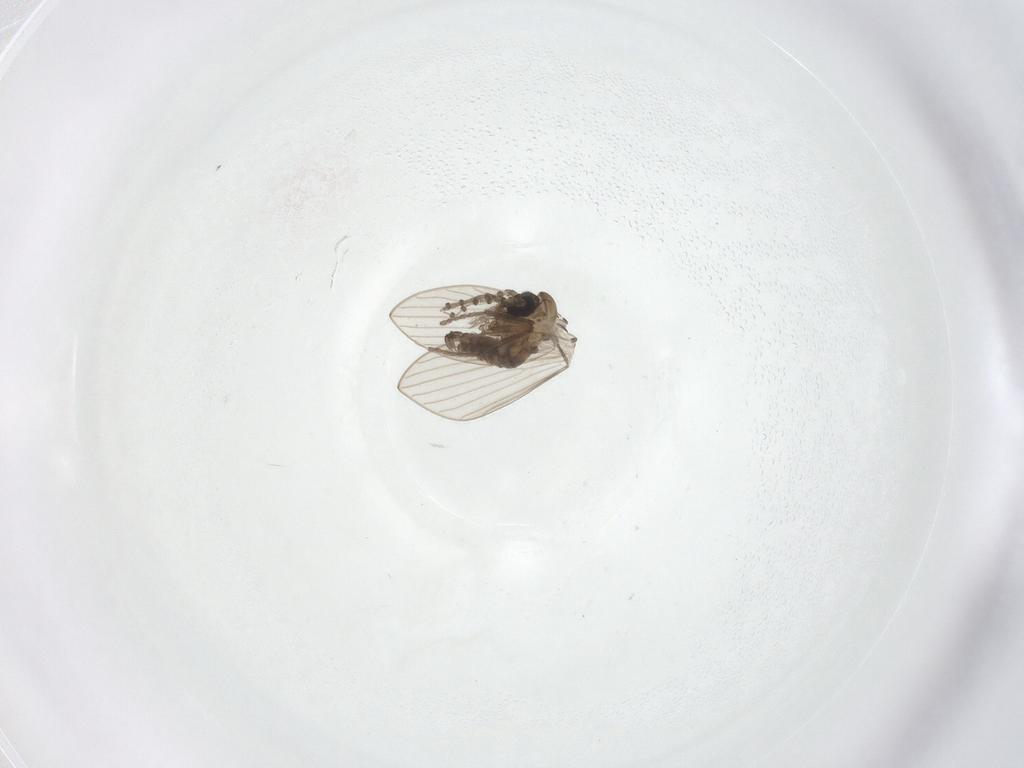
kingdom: Animalia
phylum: Arthropoda
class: Insecta
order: Diptera
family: Psychodidae
